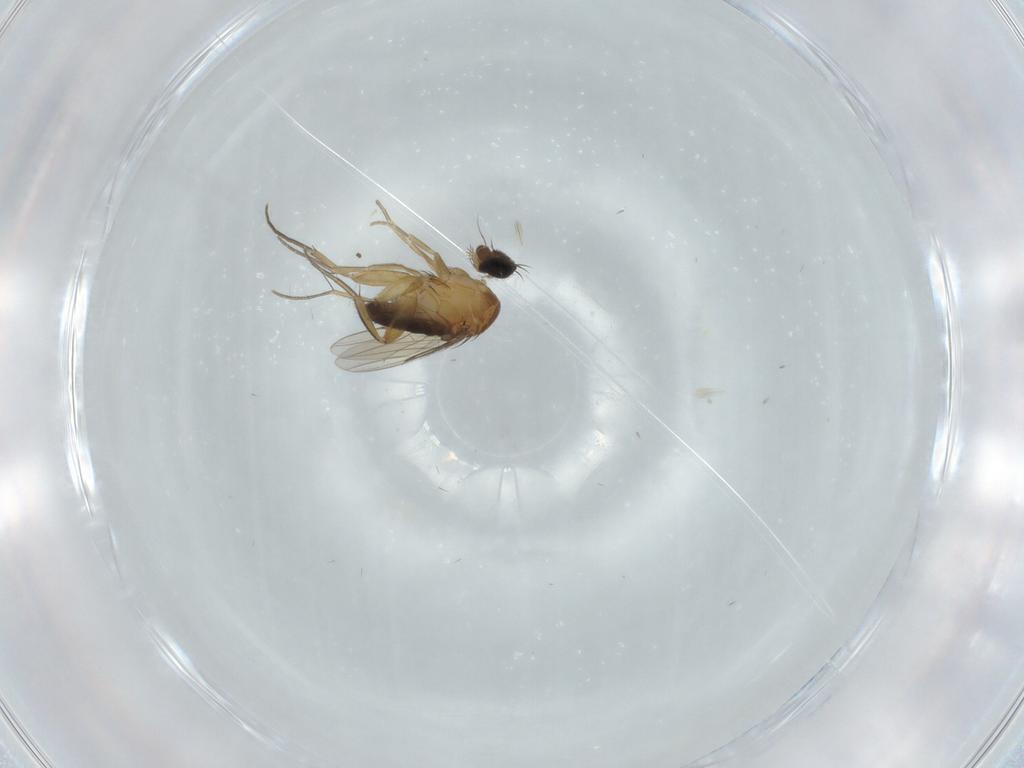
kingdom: Animalia
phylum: Arthropoda
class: Insecta
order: Diptera
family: Phoridae
